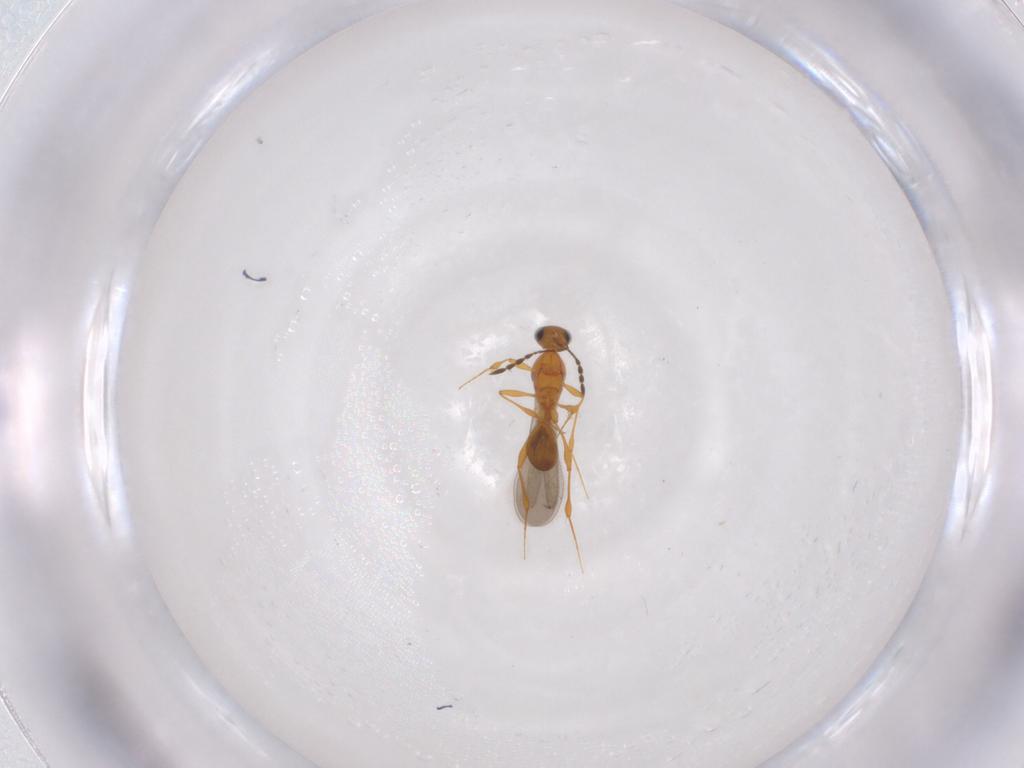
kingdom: Animalia
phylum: Arthropoda
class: Insecta
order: Hymenoptera
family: Platygastridae
